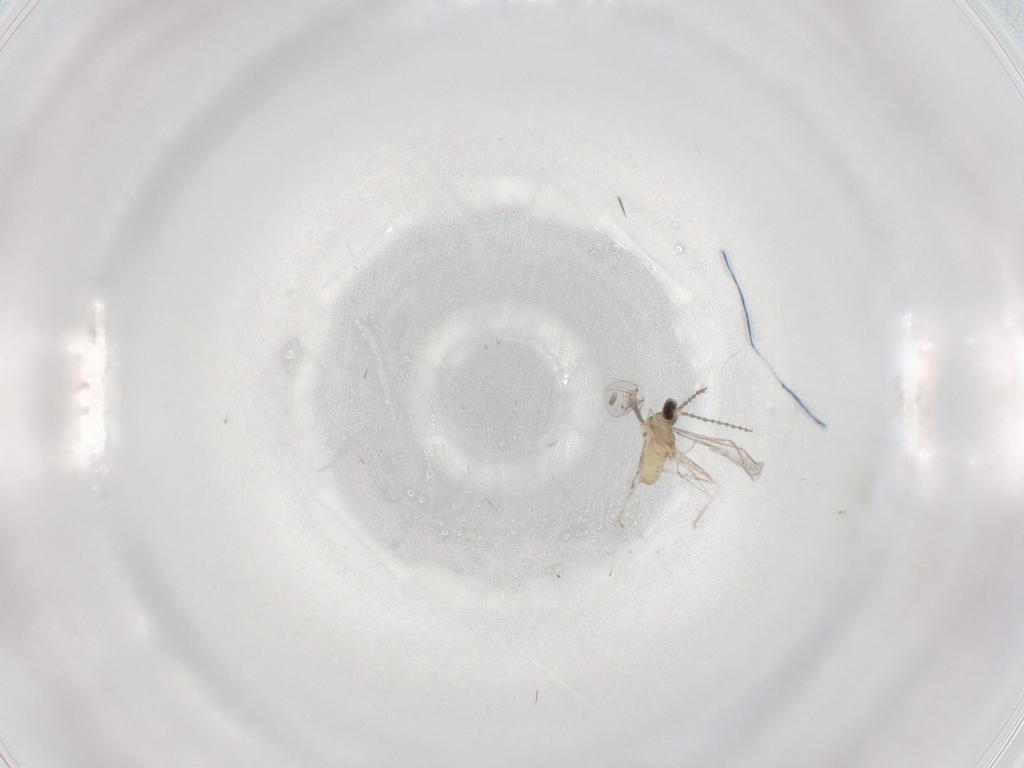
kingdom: Animalia
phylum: Arthropoda
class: Insecta
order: Diptera
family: Cecidomyiidae
